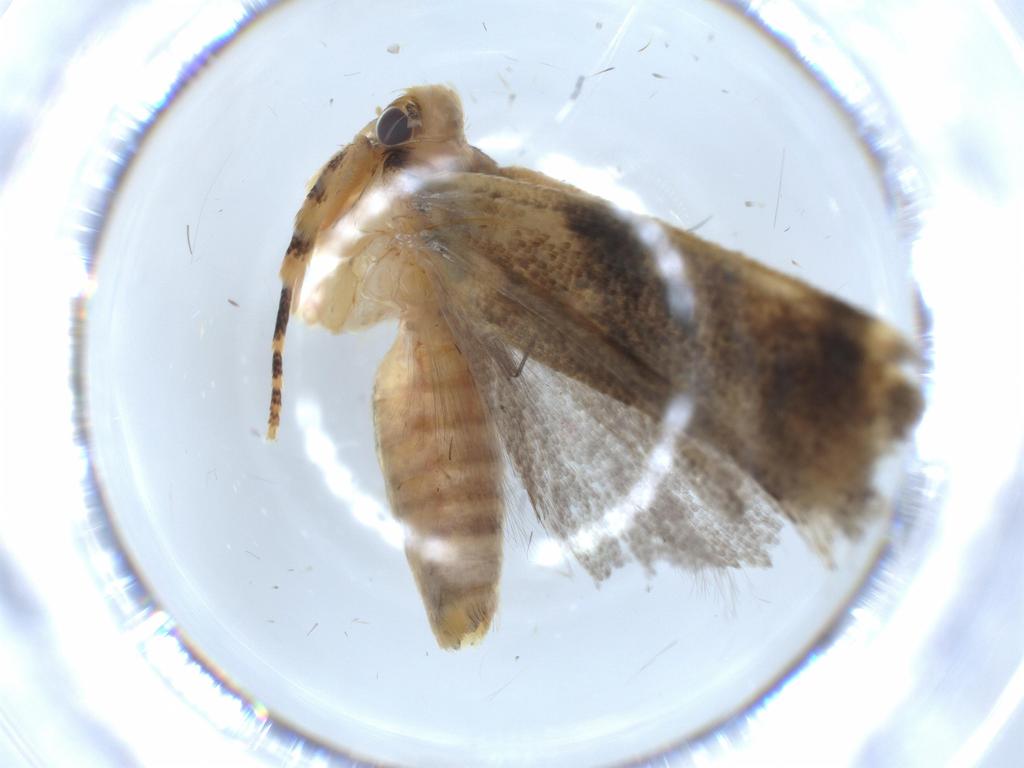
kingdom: Animalia
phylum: Arthropoda
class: Insecta
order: Lepidoptera
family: Gelechiidae
